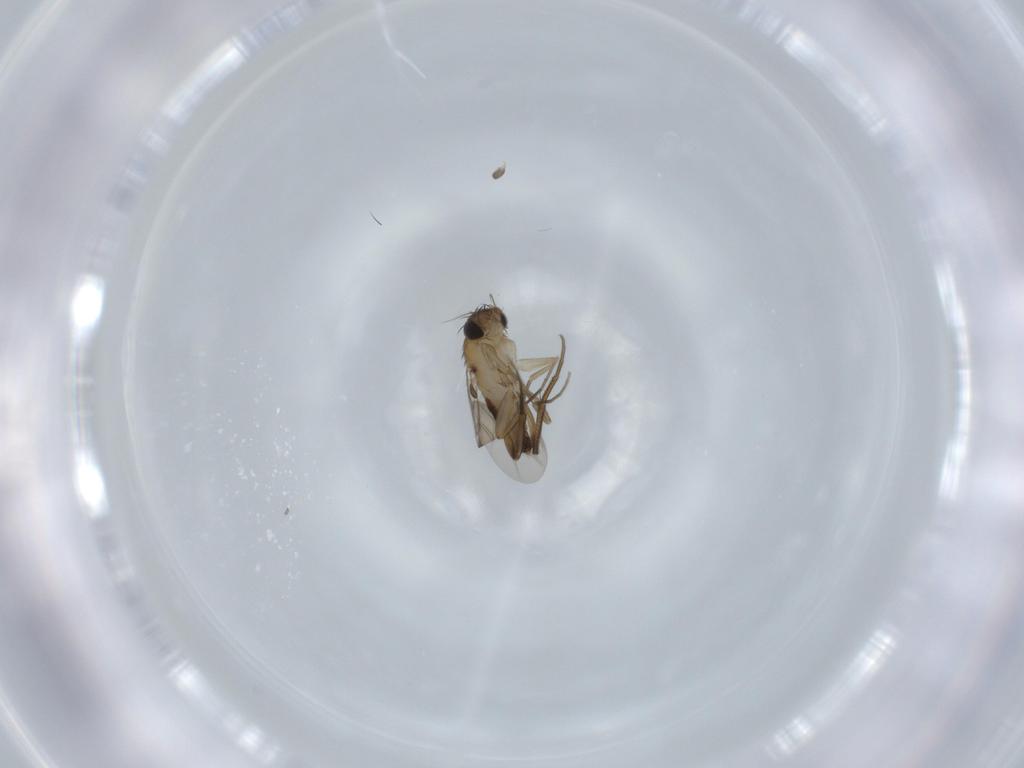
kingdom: Animalia
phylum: Arthropoda
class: Insecta
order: Diptera
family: Phoridae
